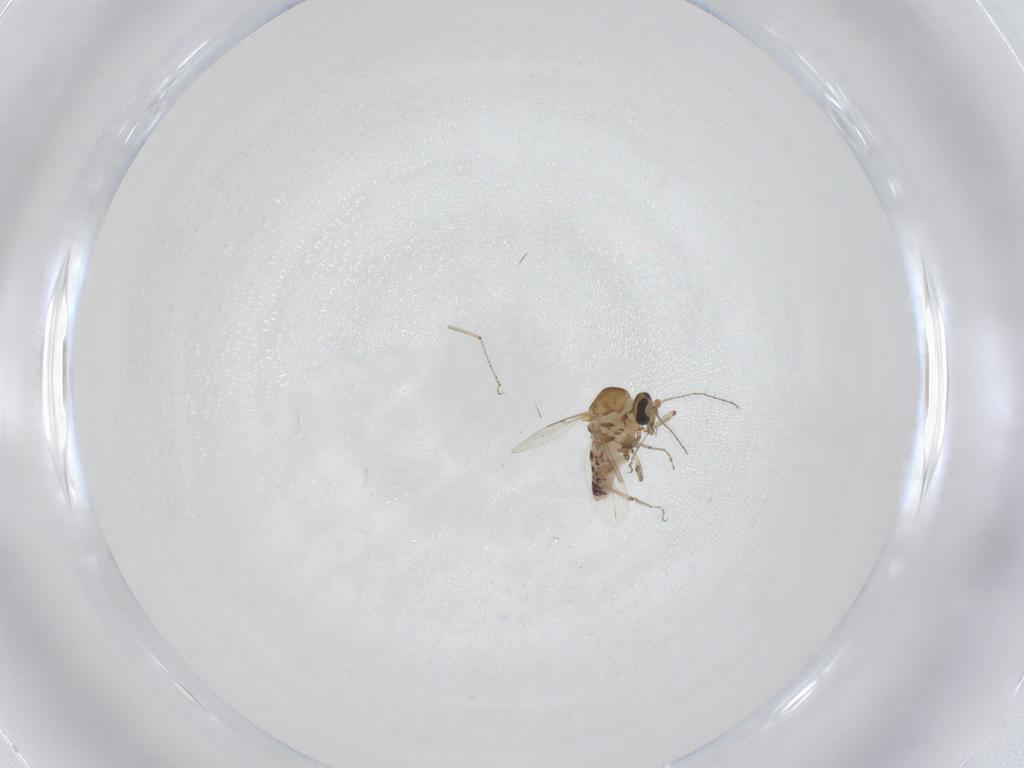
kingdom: Animalia
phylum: Arthropoda
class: Insecta
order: Diptera
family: Ceratopogonidae
